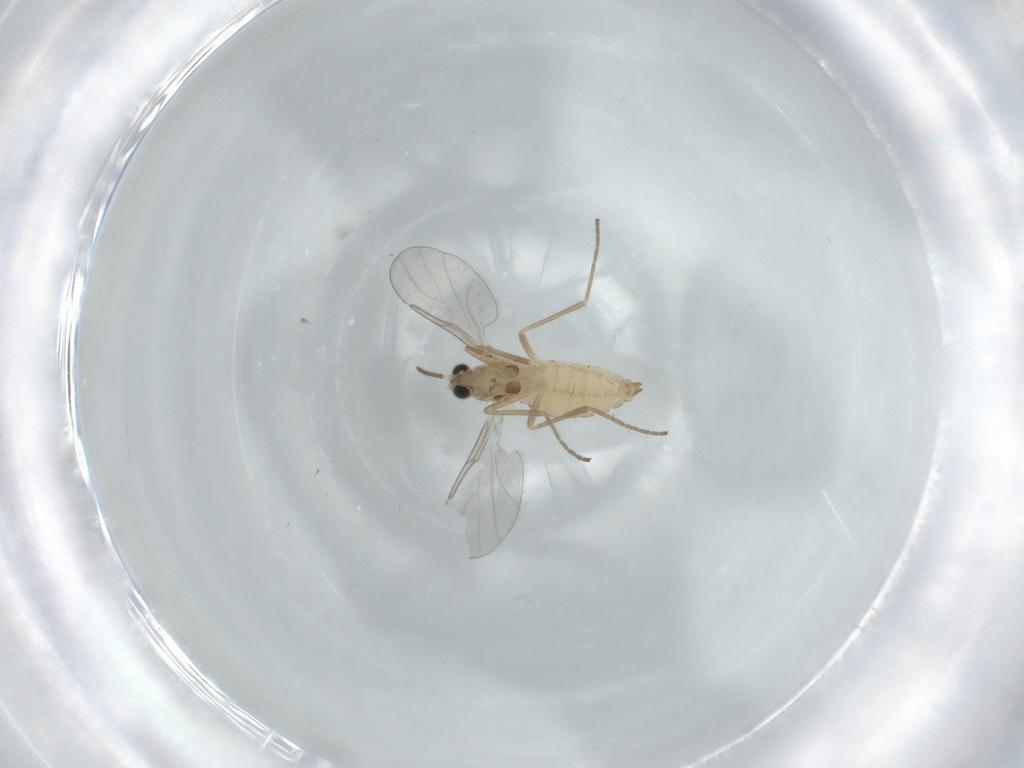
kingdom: Animalia
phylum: Arthropoda
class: Insecta
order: Diptera
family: Cecidomyiidae
